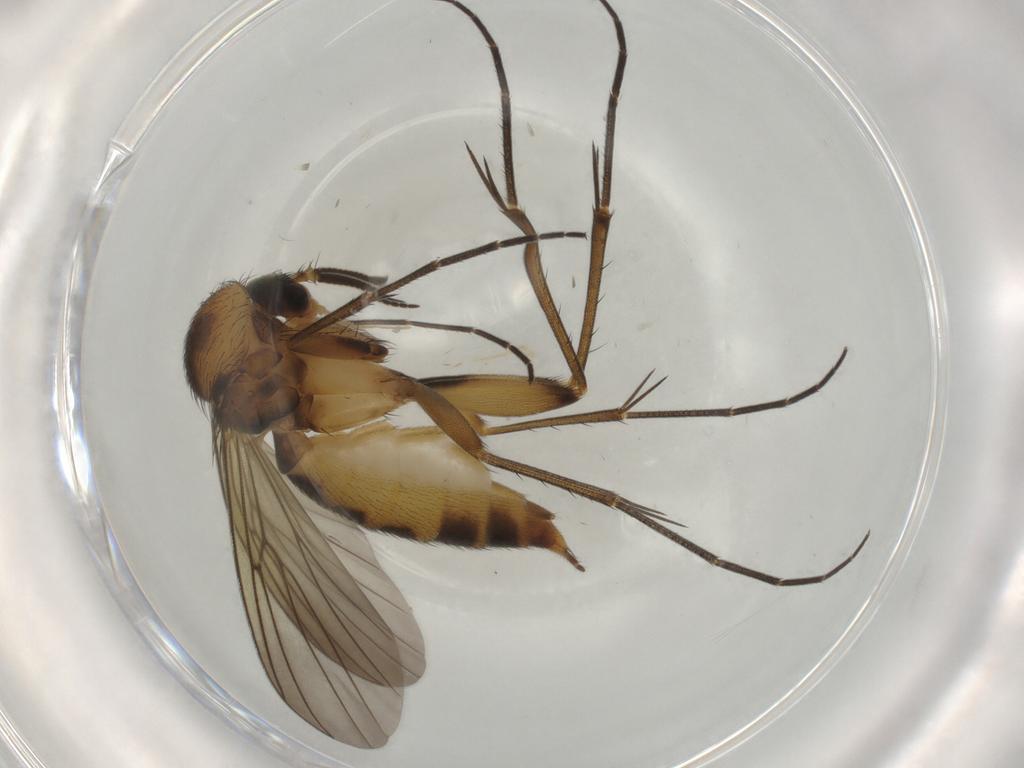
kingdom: Animalia
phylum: Arthropoda
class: Insecta
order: Diptera
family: Mycetophilidae
